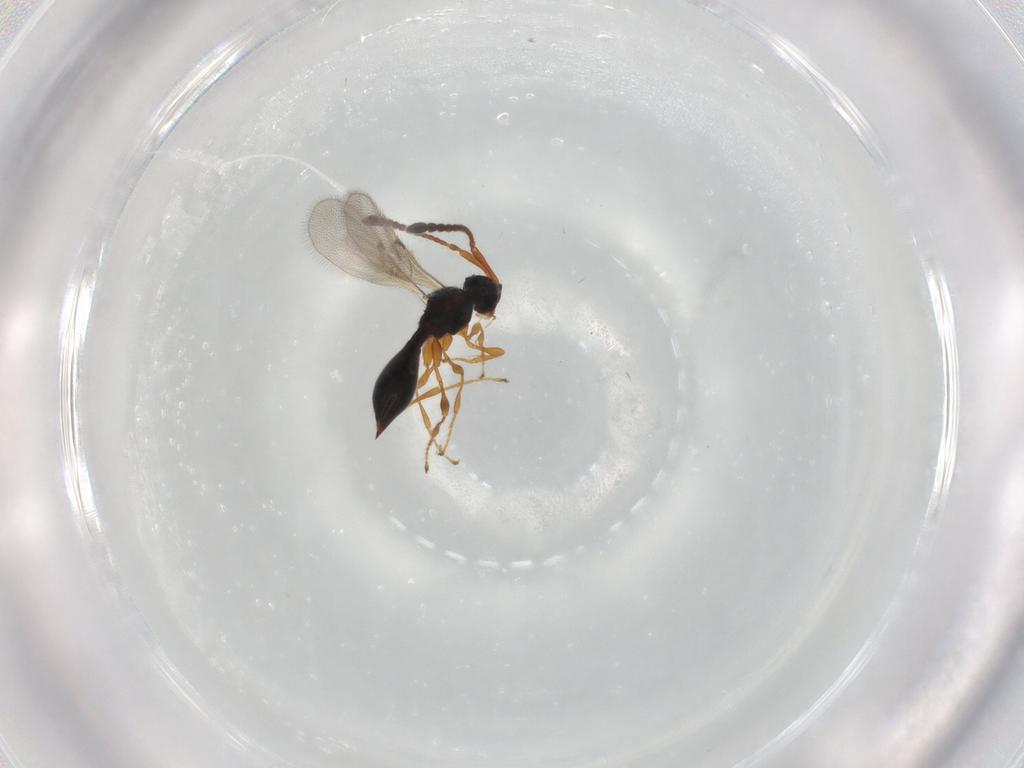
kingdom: Animalia
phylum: Arthropoda
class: Insecta
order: Hymenoptera
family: Diapriidae
